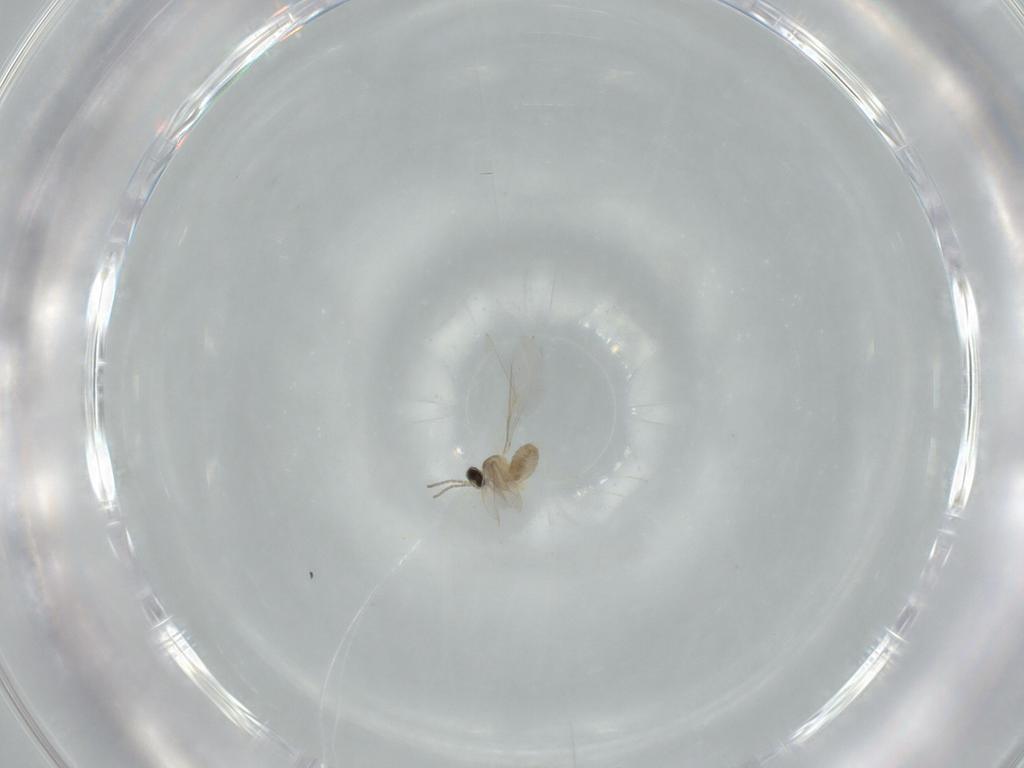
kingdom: Animalia
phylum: Arthropoda
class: Insecta
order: Diptera
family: Cecidomyiidae
